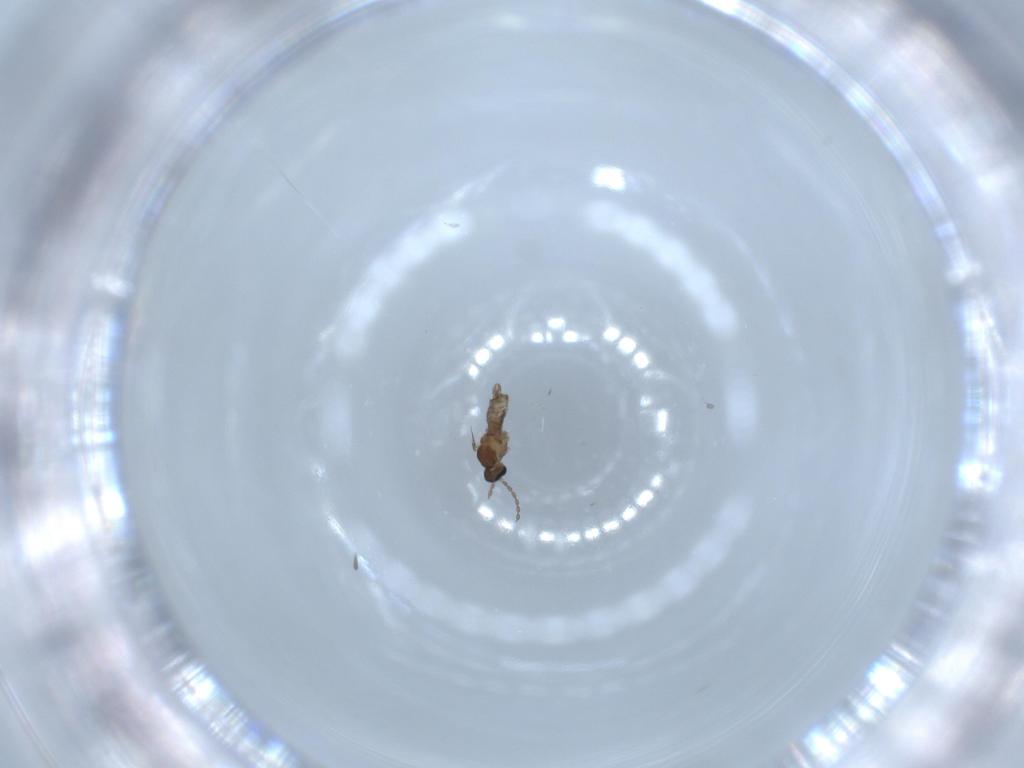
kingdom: Animalia
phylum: Arthropoda
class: Insecta
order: Diptera
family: Cecidomyiidae
